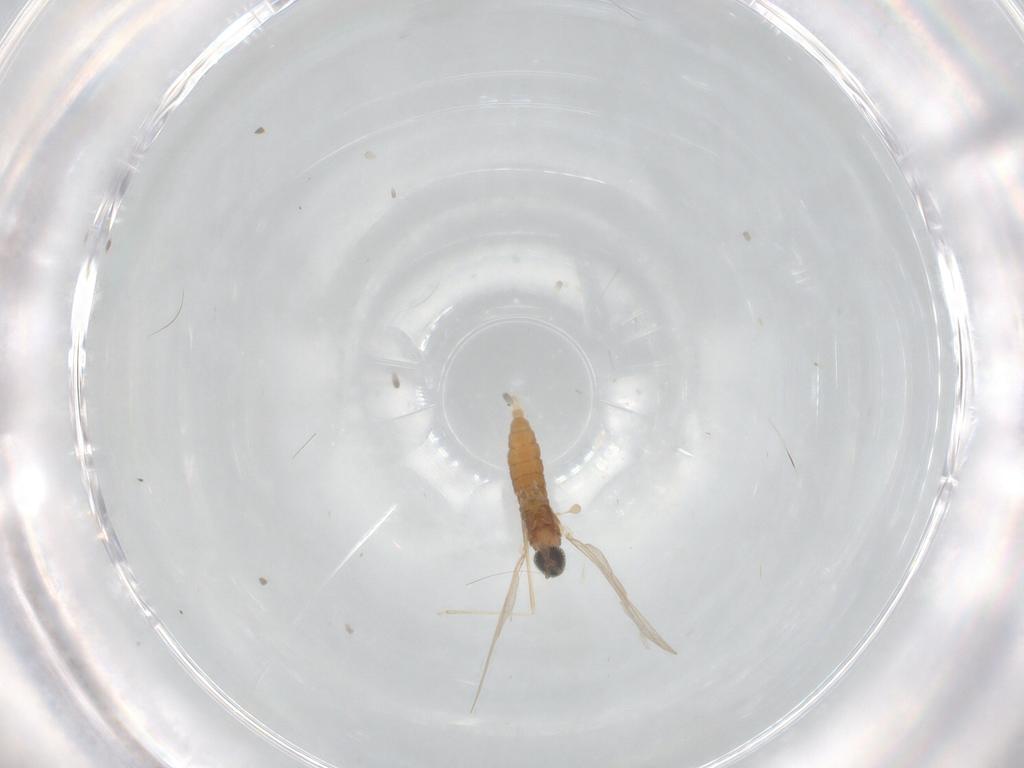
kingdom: Animalia
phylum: Arthropoda
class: Insecta
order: Diptera
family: Cecidomyiidae
